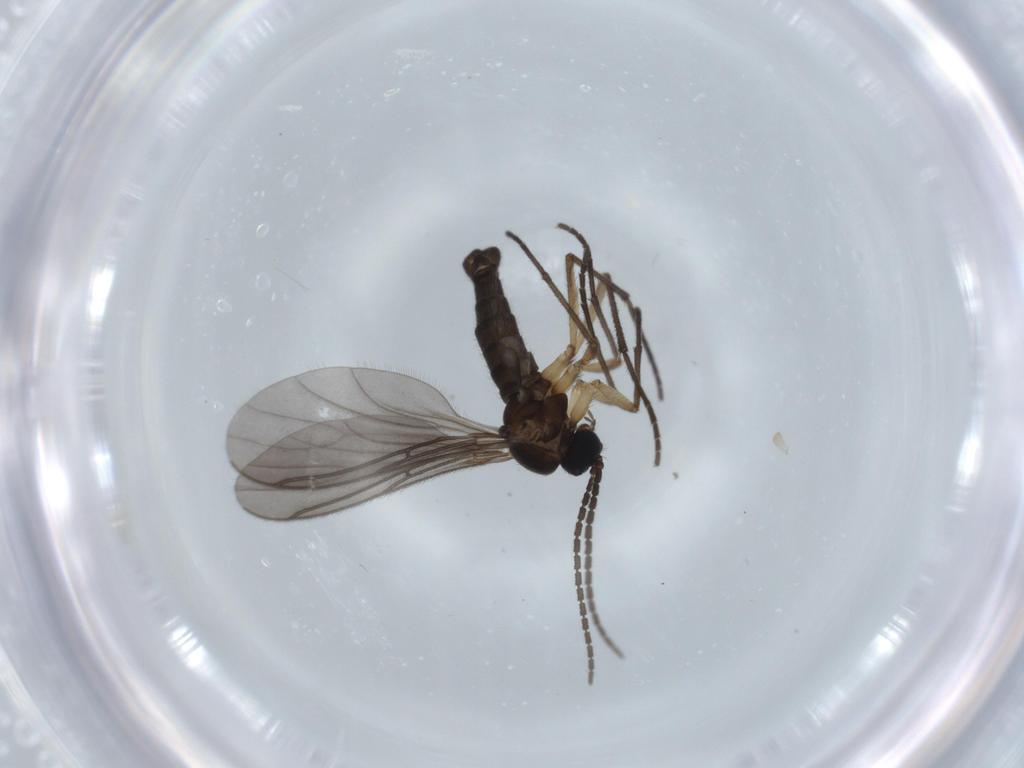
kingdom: Animalia
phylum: Arthropoda
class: Insecta
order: Diptera
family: Sciaridae
